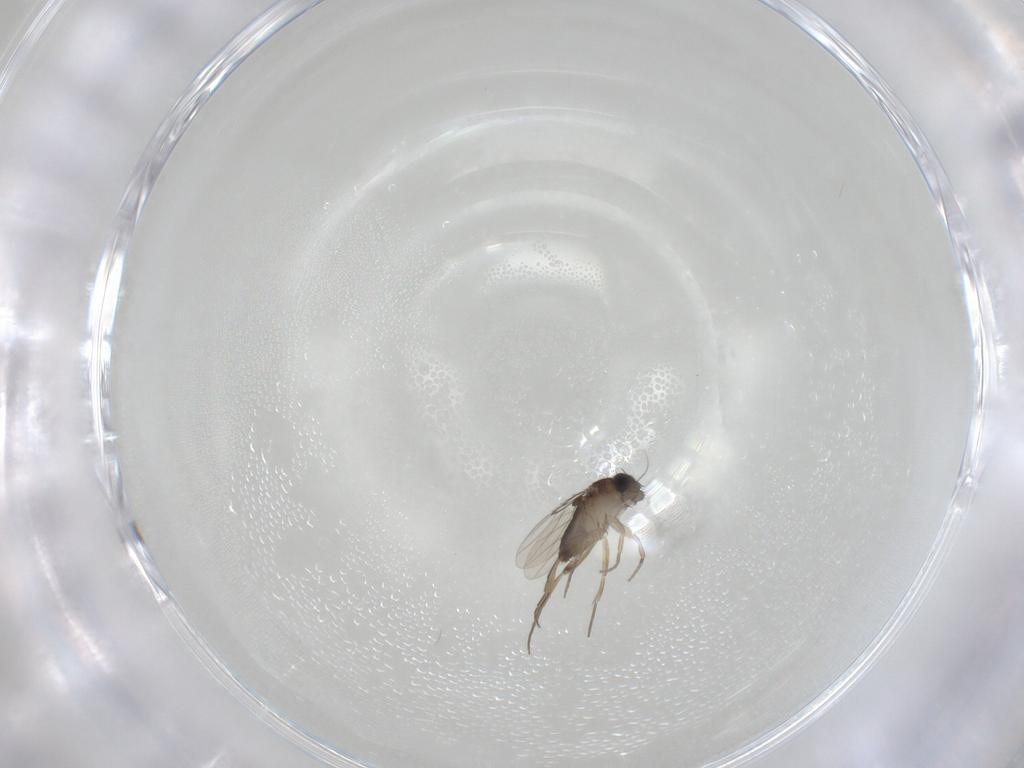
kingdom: Animalia
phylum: Arthropoda
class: Insecta
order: Diptera
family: Phoridae
